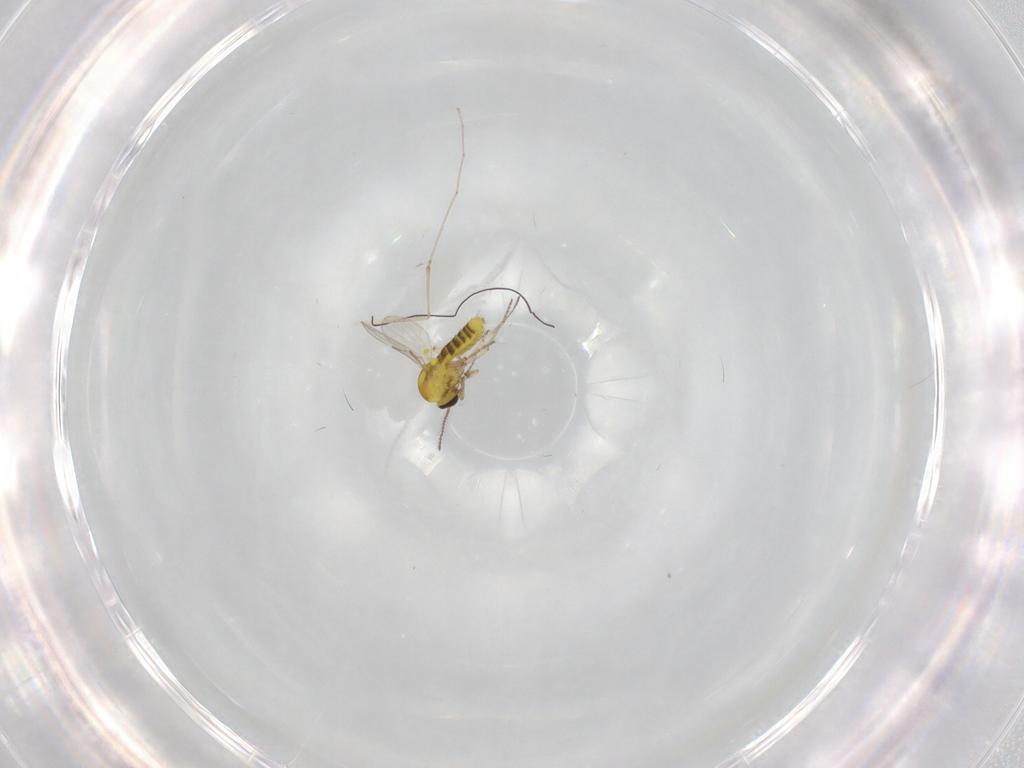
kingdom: Animalia
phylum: Arthropoda
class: Insecta
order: Diptera
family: Ceratopogonidae
